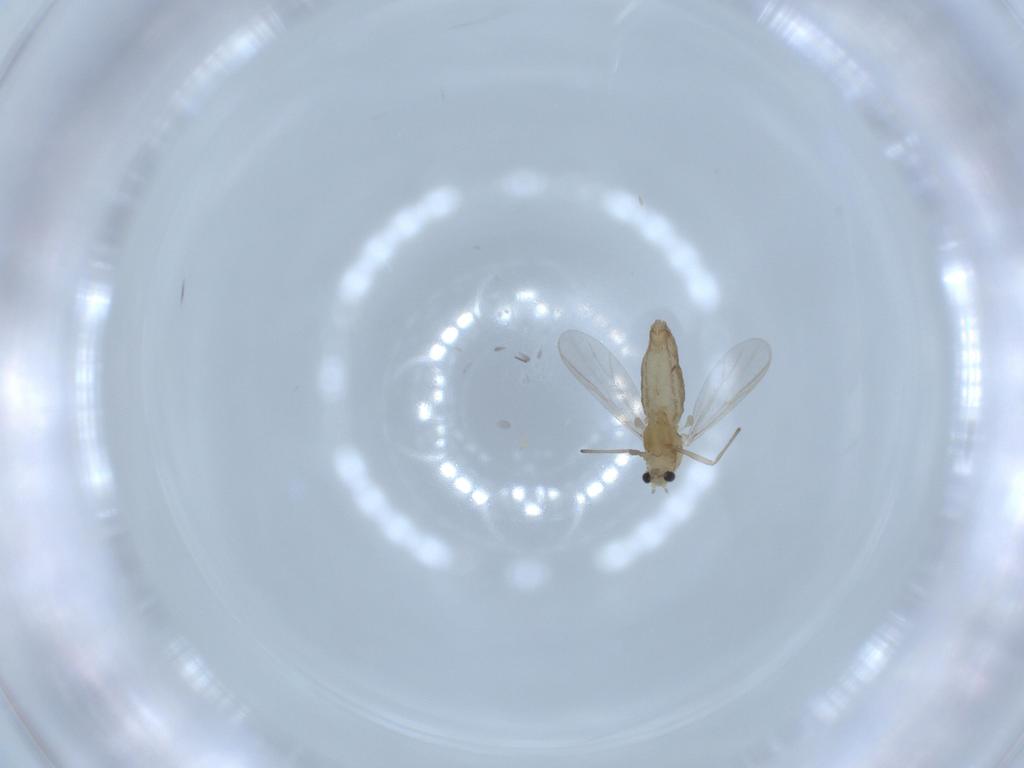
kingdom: Animalia
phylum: Arthropoda
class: Insecta
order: Diptera
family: Chironomidae
